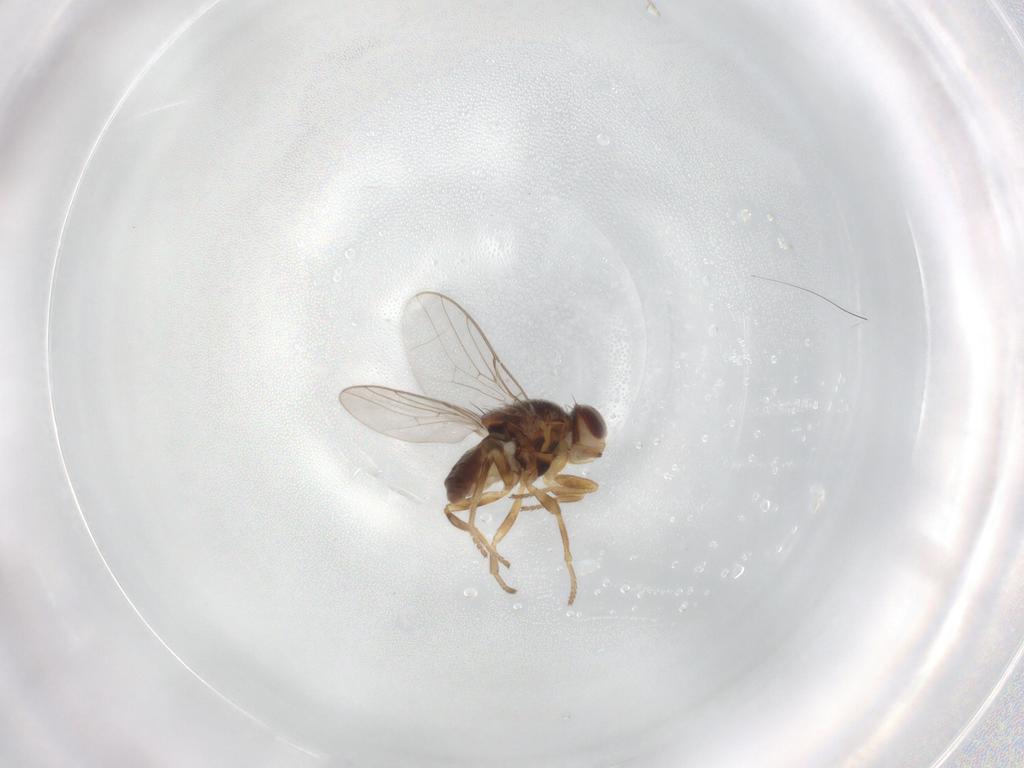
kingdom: Animalia
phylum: Arthropoda
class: Insecta
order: Diptera
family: Chloropidae
